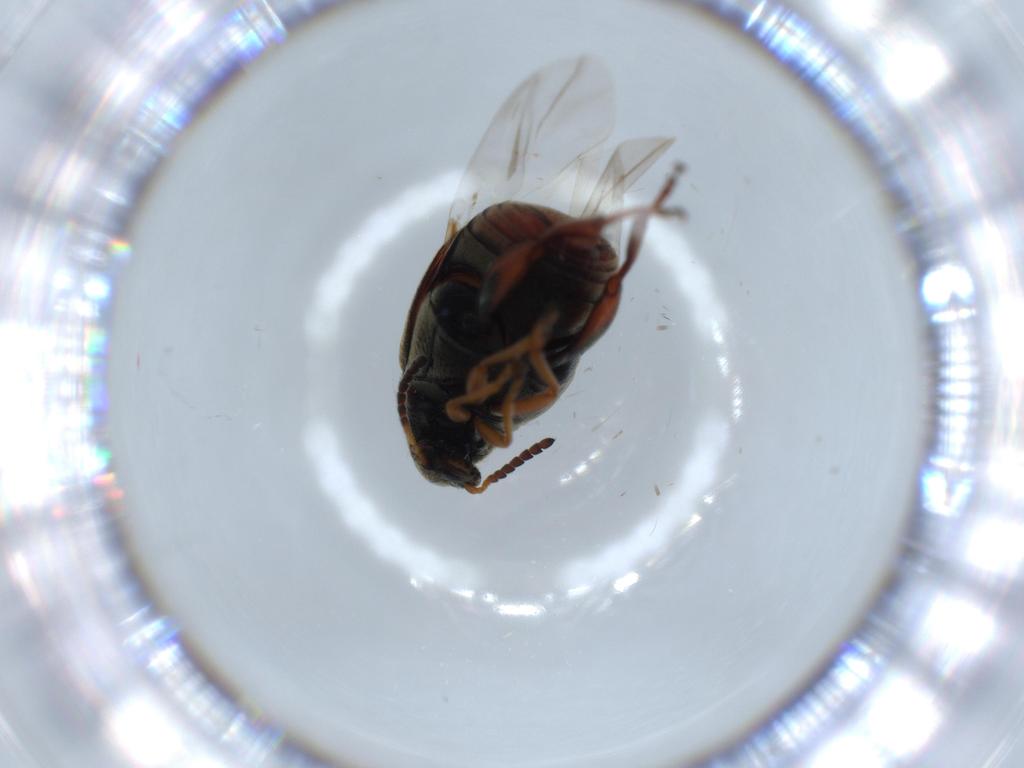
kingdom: Animalia
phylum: Arthropoda
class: Insecta
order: Coleoptera
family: Chrysomelidae
